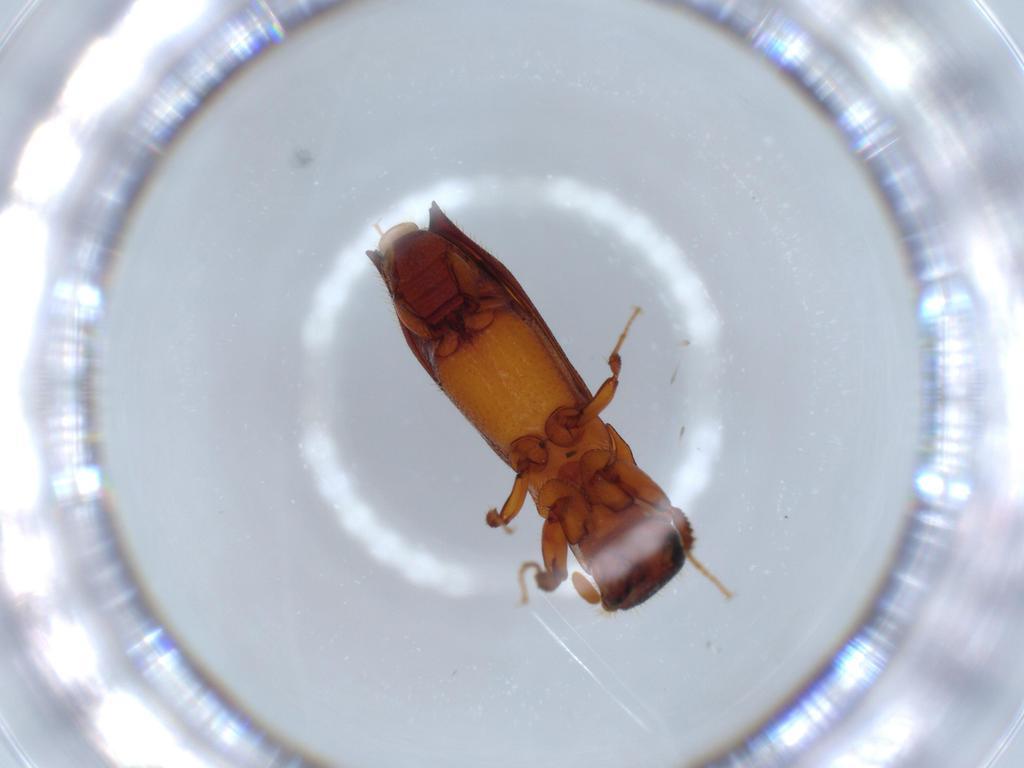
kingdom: Animalia
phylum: Arthropoda
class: Insecta
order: Coleoptera
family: Curculionidae
